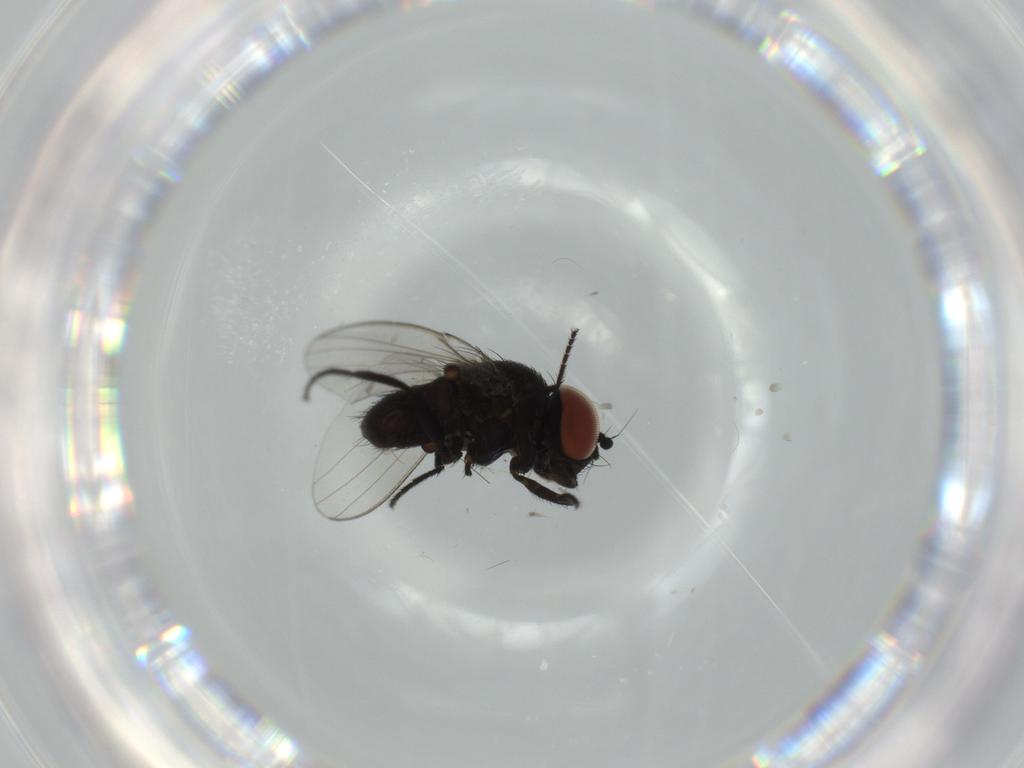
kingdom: Animalia
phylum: Arthropoda
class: Insecta
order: Diptera
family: Milichiidae
